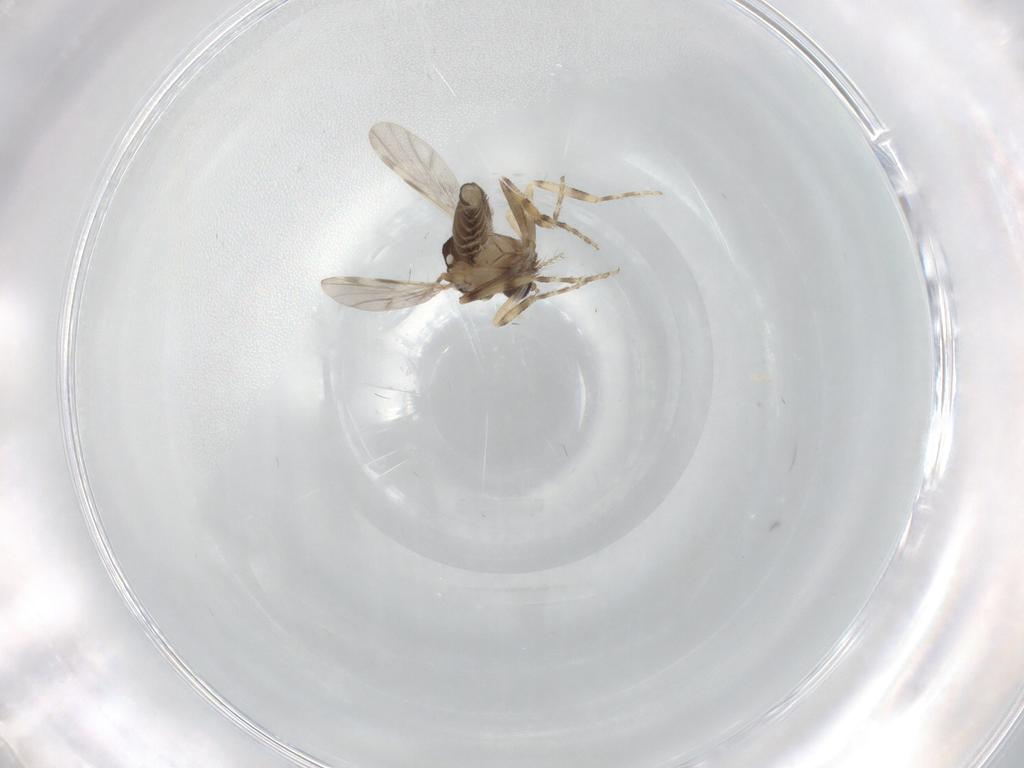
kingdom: Animalia
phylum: Arthropoda
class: Insecta
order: Diptera
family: Ceratopogonidae
